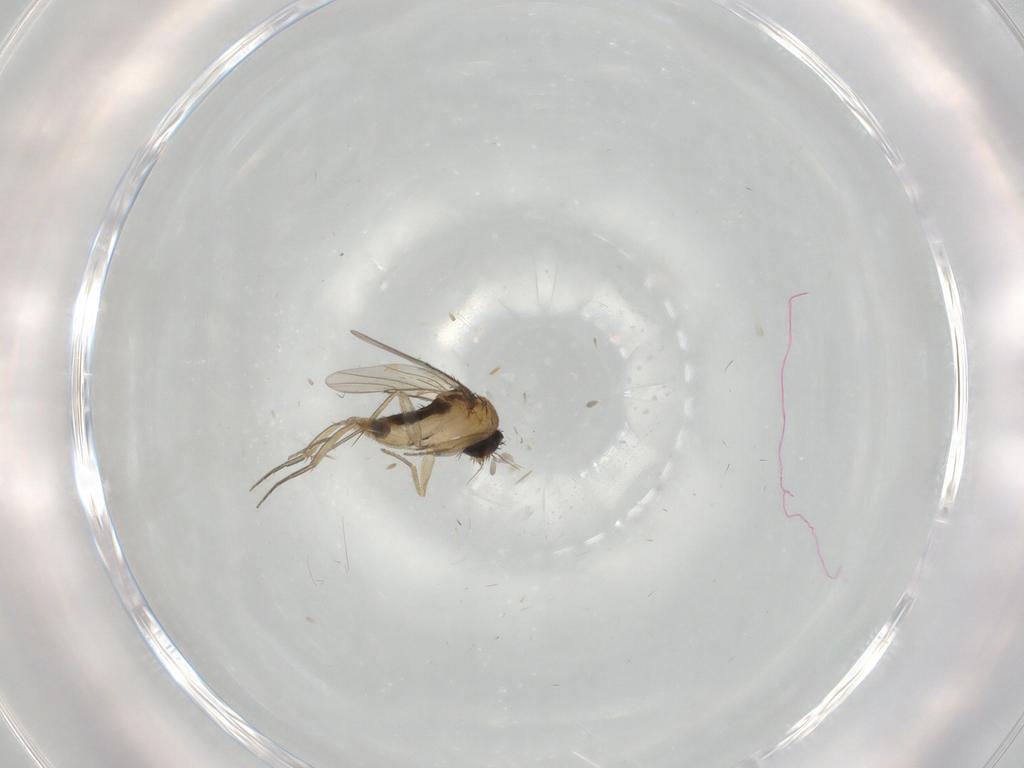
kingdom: Animalia
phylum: Arthropoda
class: Insecta
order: Diptera
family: Phoridae
